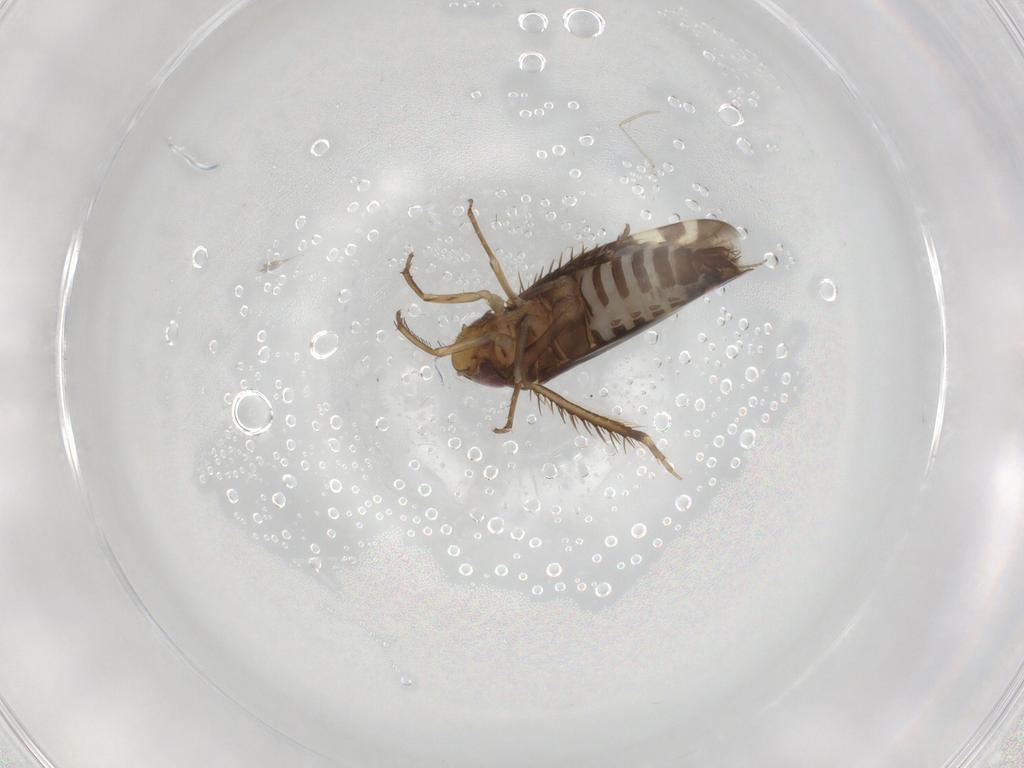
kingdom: Animalia
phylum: Arthropoda
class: Insecta
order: Hemiptera
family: Cicadellidae
